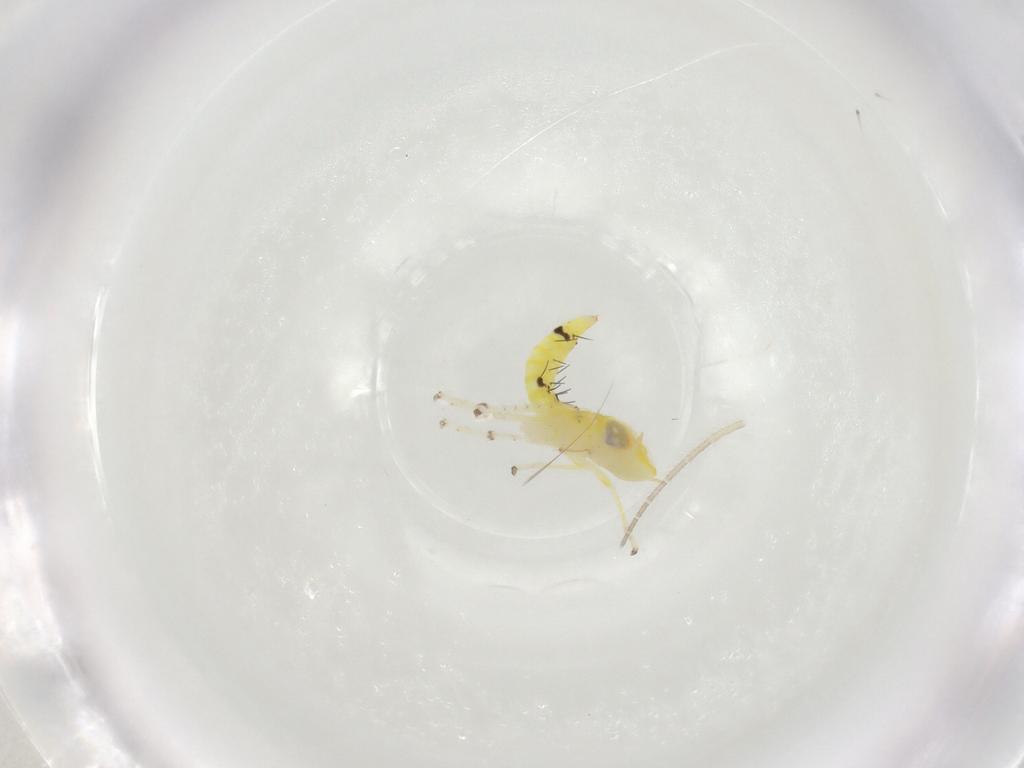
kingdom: Animalia
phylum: Arthropoda
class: Insecta
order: Hemiptera
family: Cicadellidae
